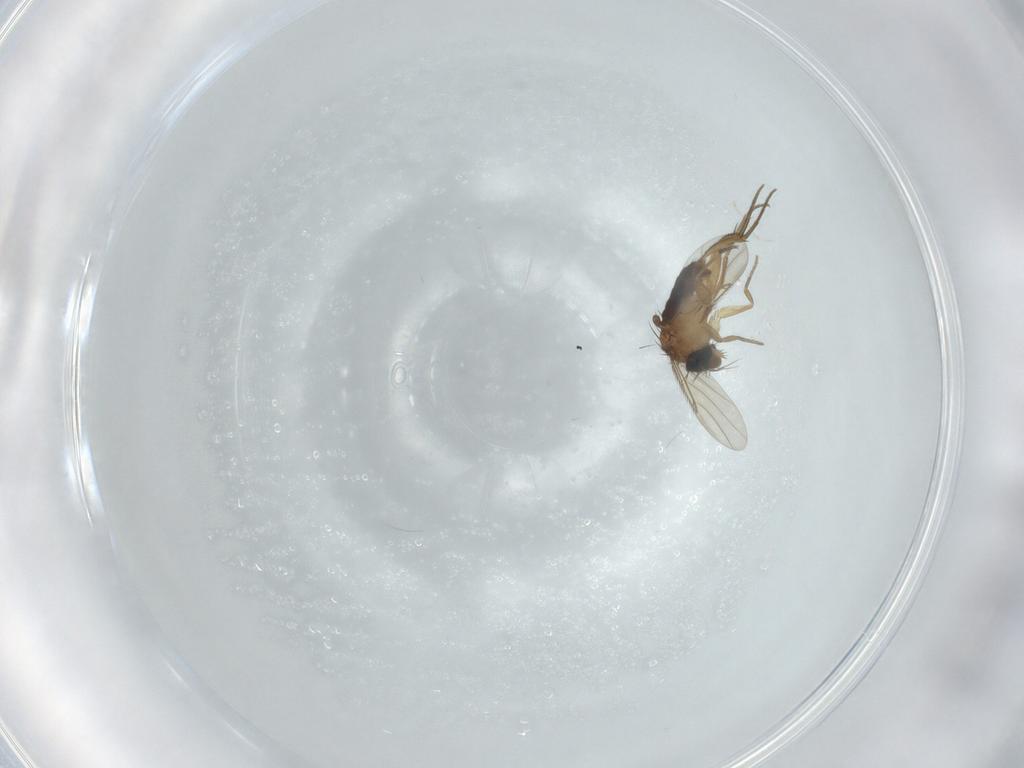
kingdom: Animalia
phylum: Arthropoda
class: Insecta
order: Diptera
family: Phoridae
